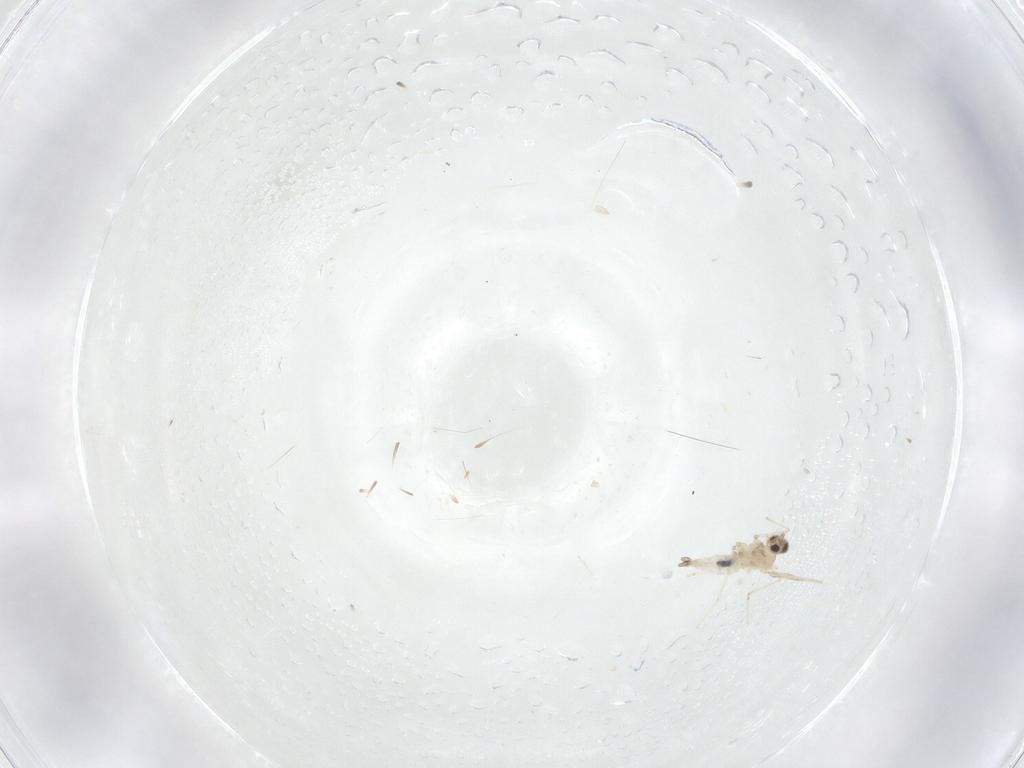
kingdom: Animalia
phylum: Arthropoda
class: Insecta
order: Diptera
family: Cecidomyiidae
